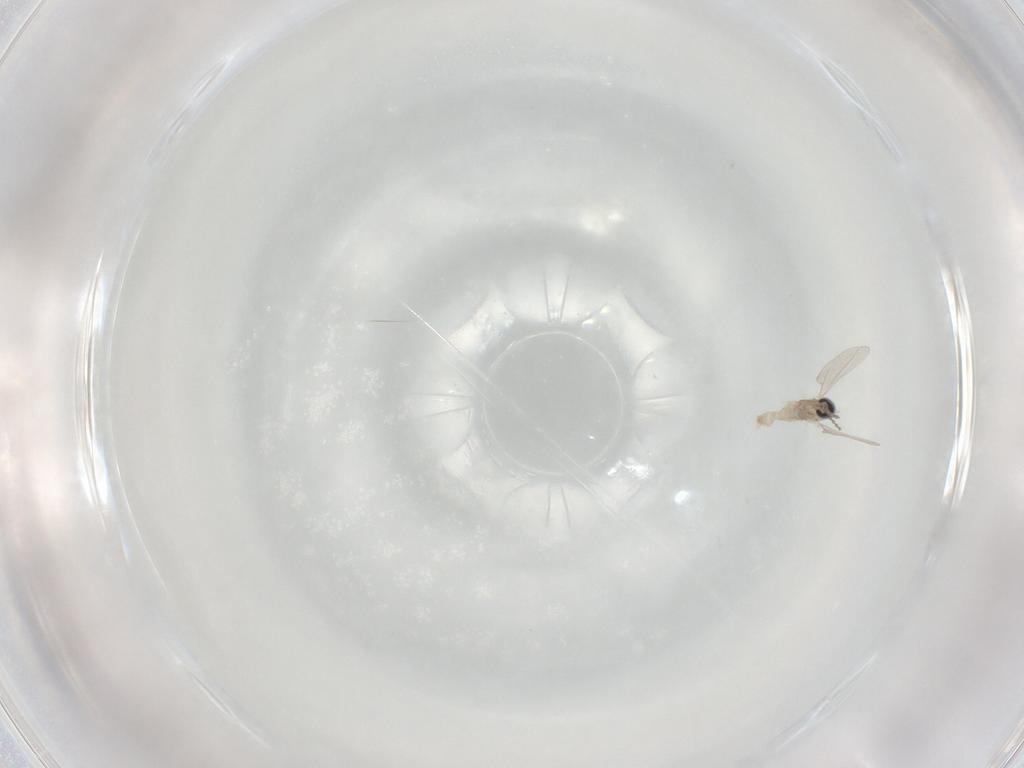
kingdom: Animalia
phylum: Arthropoda
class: Insecta
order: Diptera
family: Cecidomyiidae
